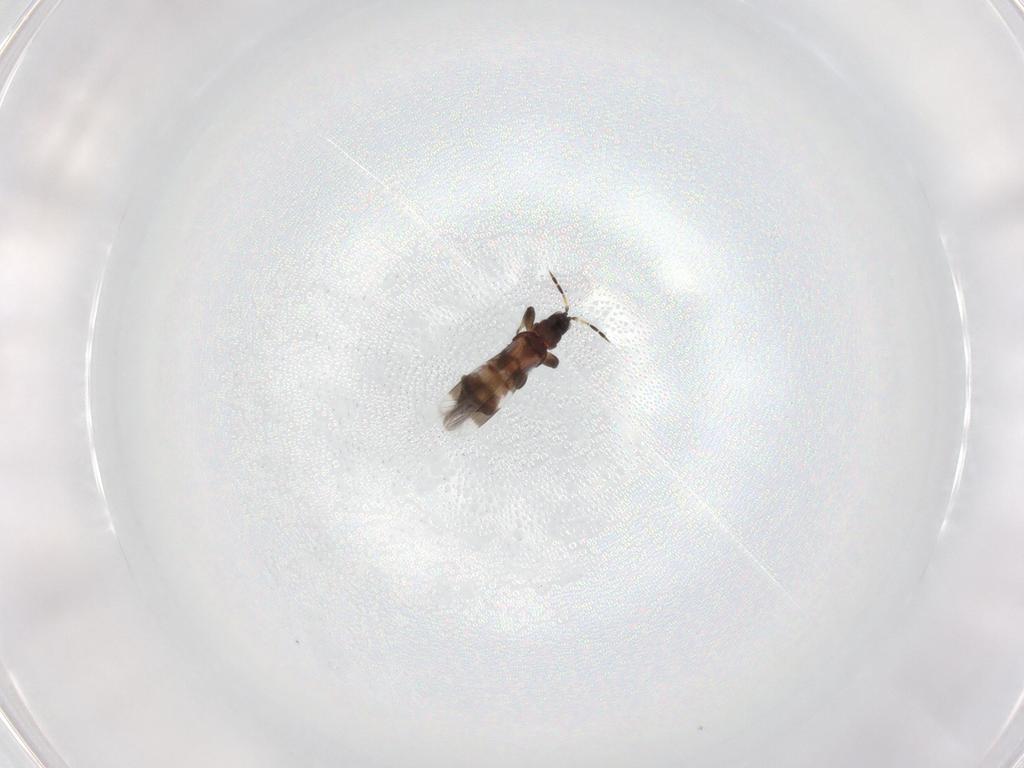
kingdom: Animalia
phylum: Arthropoda
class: Insecta
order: Thysanoptera
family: Aeolothripidae
